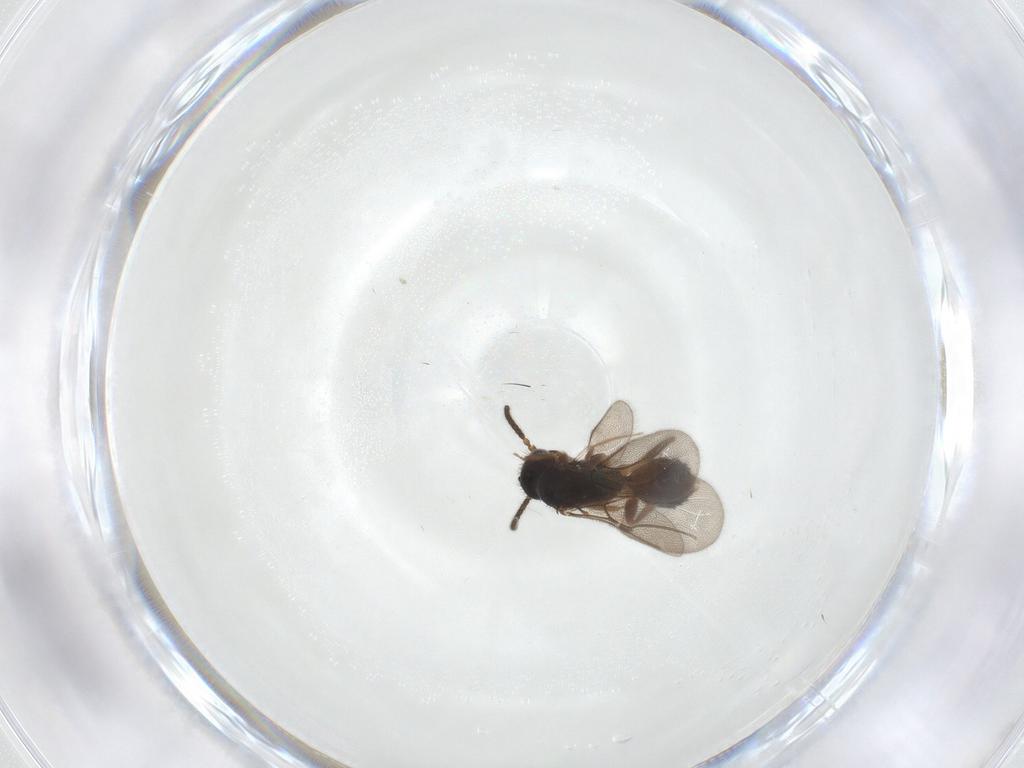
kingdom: Animalia
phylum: Arthropoda
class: Insecta
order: Hymenoptera
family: Bethylidae
